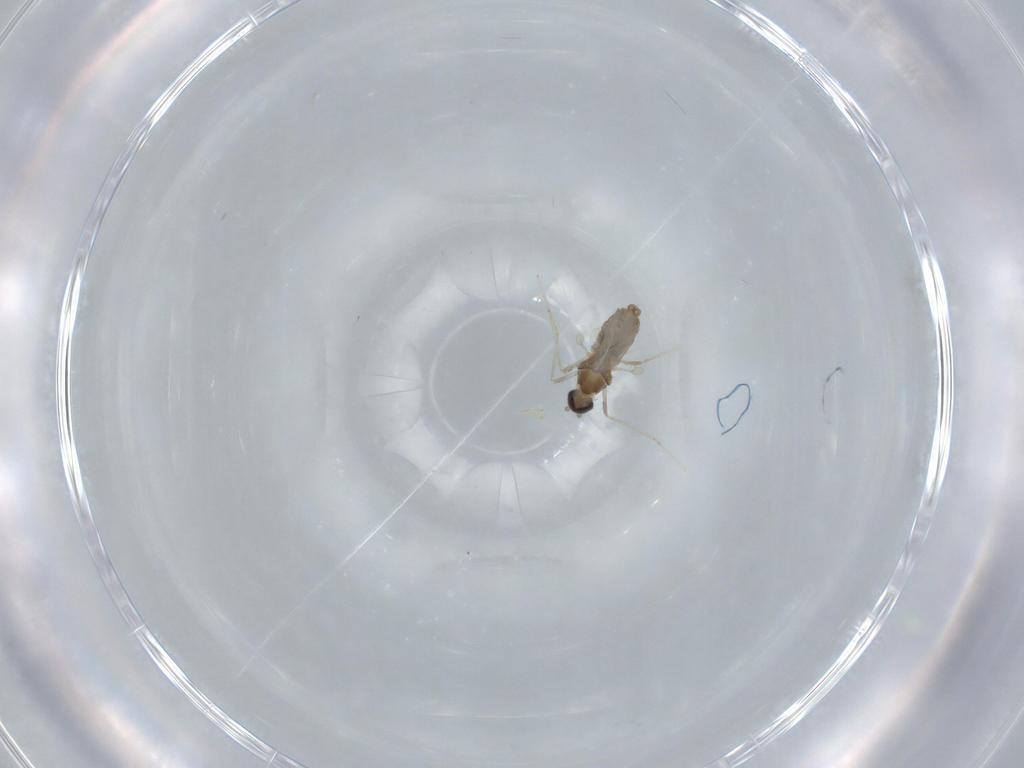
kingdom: Animalia
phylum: Arthropoda
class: Insecta
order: Diptera
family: Cecidomyiidae
